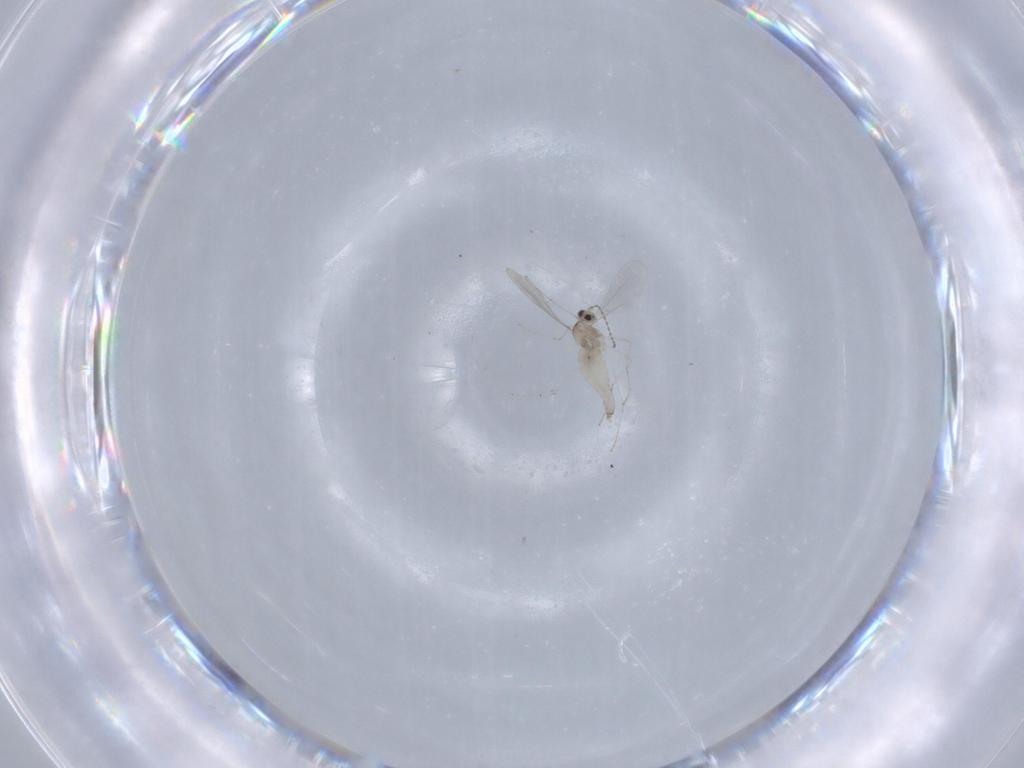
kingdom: Animalia
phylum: Arthropoda
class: Insecta
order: Diptera
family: Cecidomyiidae
